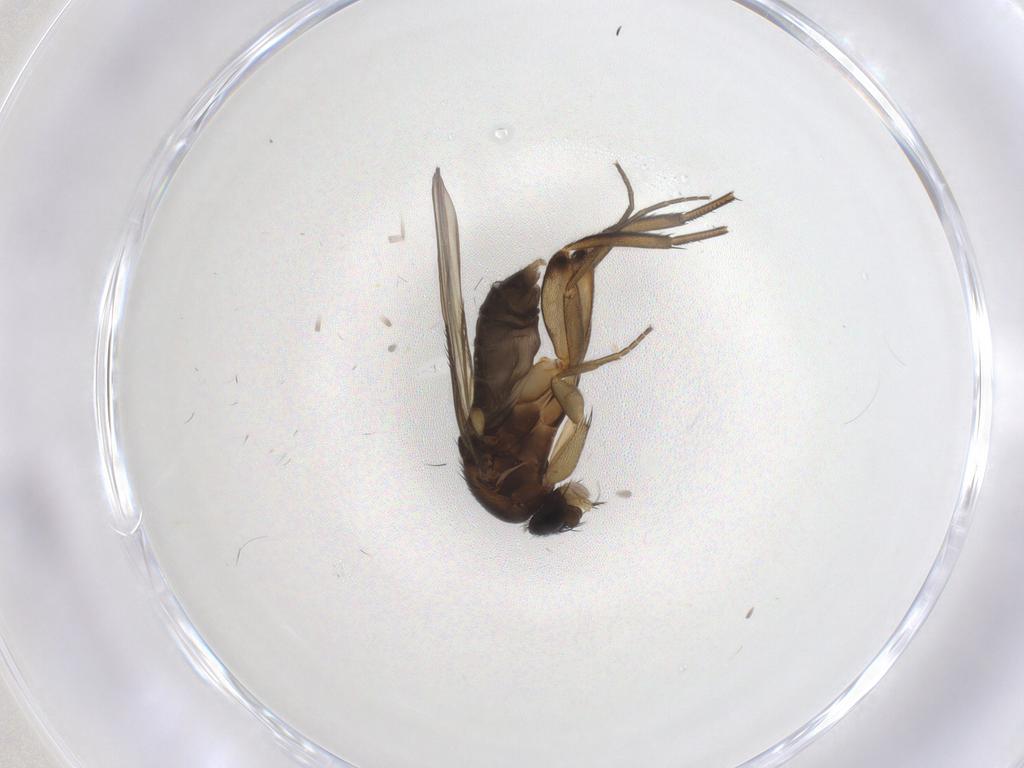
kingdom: Animalia
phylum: Arthropoda
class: Insecta
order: Diptera
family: Phoridae
